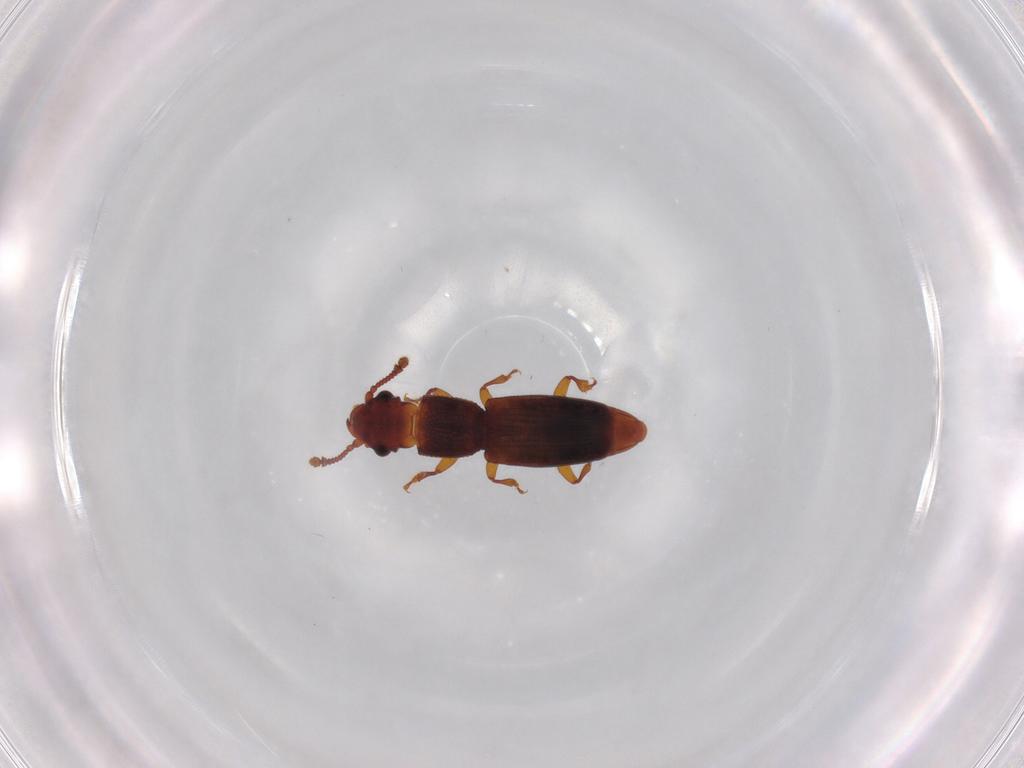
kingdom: Animalia
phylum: Arthropoda
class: Insecta
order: Coleoptera
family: Monotomidae
